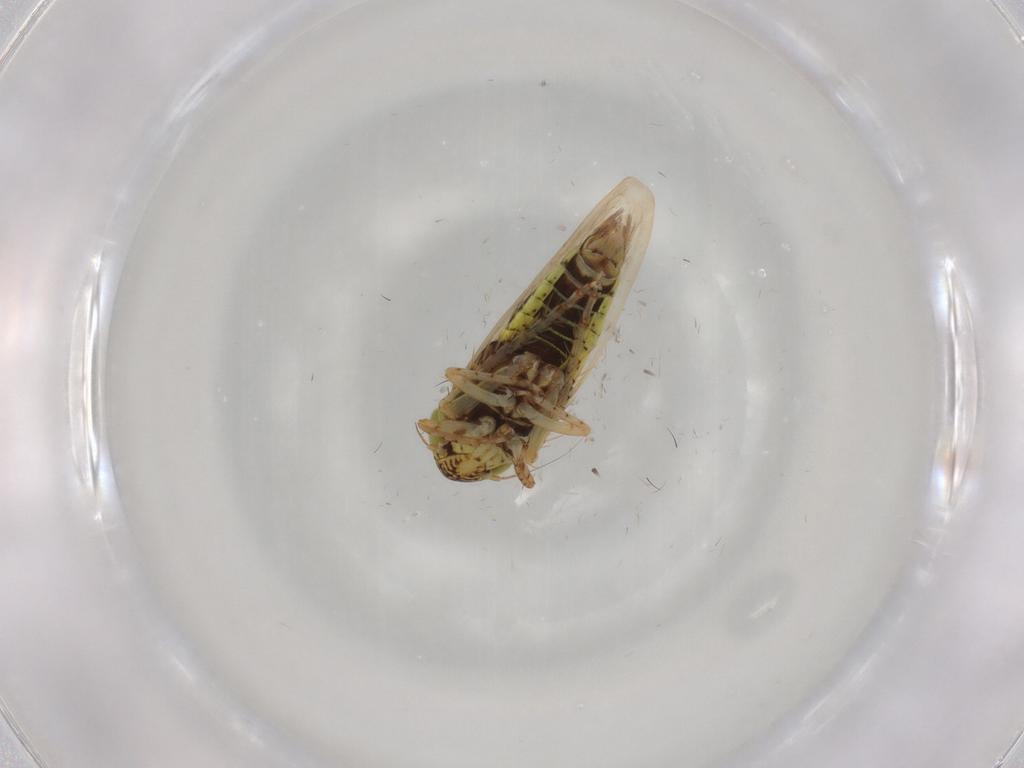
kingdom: Animalia
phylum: Arthropoda
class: Insecta
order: Hemiptera
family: Cicadellidae
